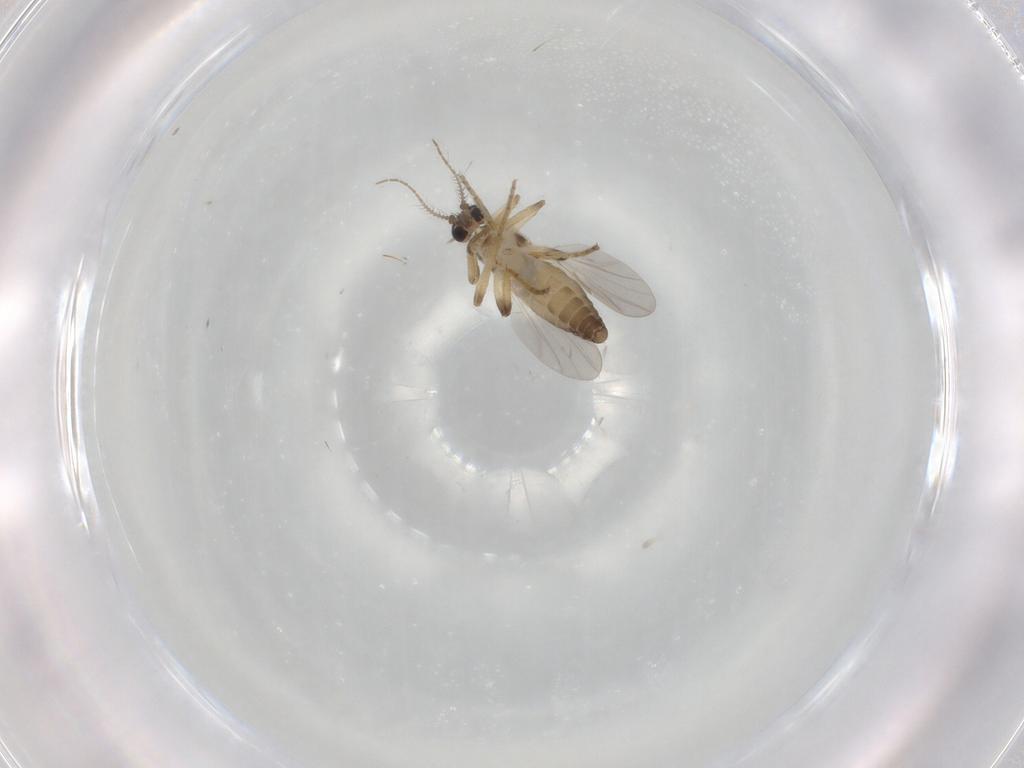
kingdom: Animalia
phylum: Arthropoda
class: Insecta
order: Diptera
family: Ceratopogonidae
